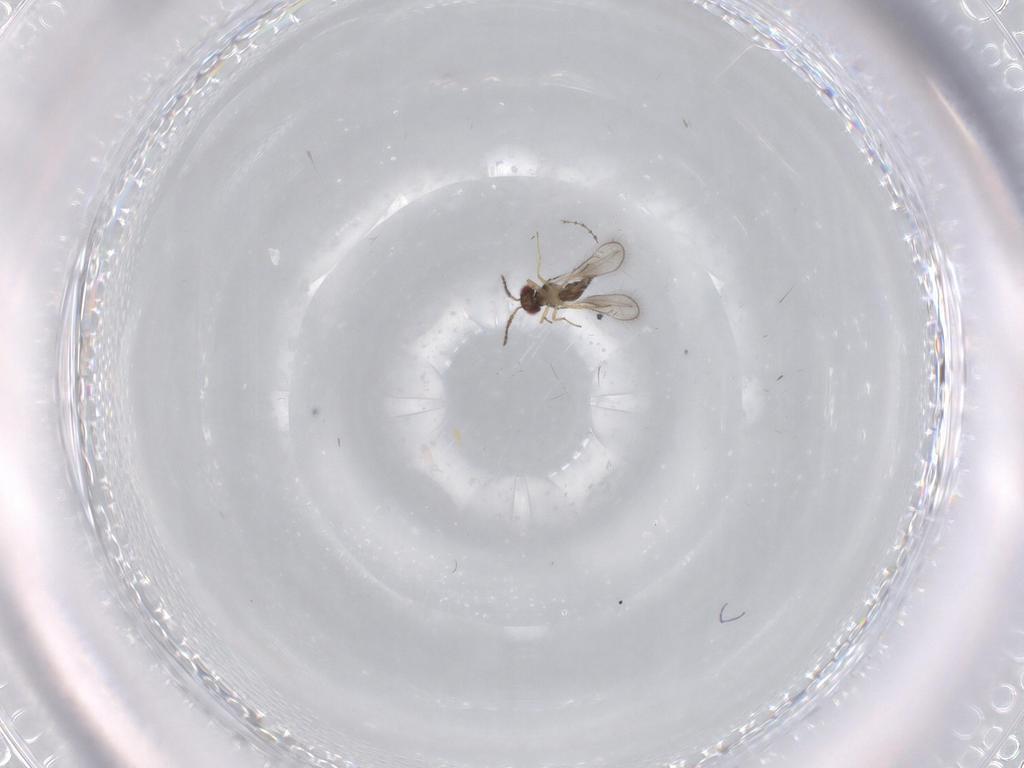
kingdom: Animalia
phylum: Arthropoda
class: Insecta
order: Hymenoptera
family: Eulophidae
